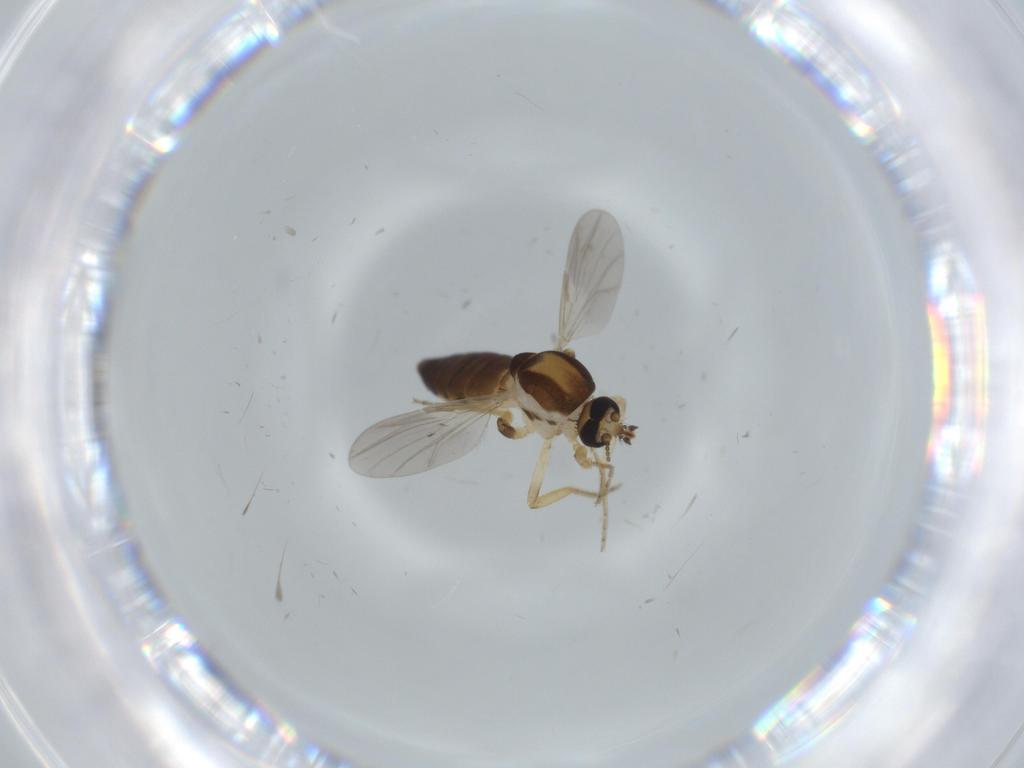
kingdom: Animalia
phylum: Arthropoda
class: Insecta
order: Diptera
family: Ceratopogonidae
